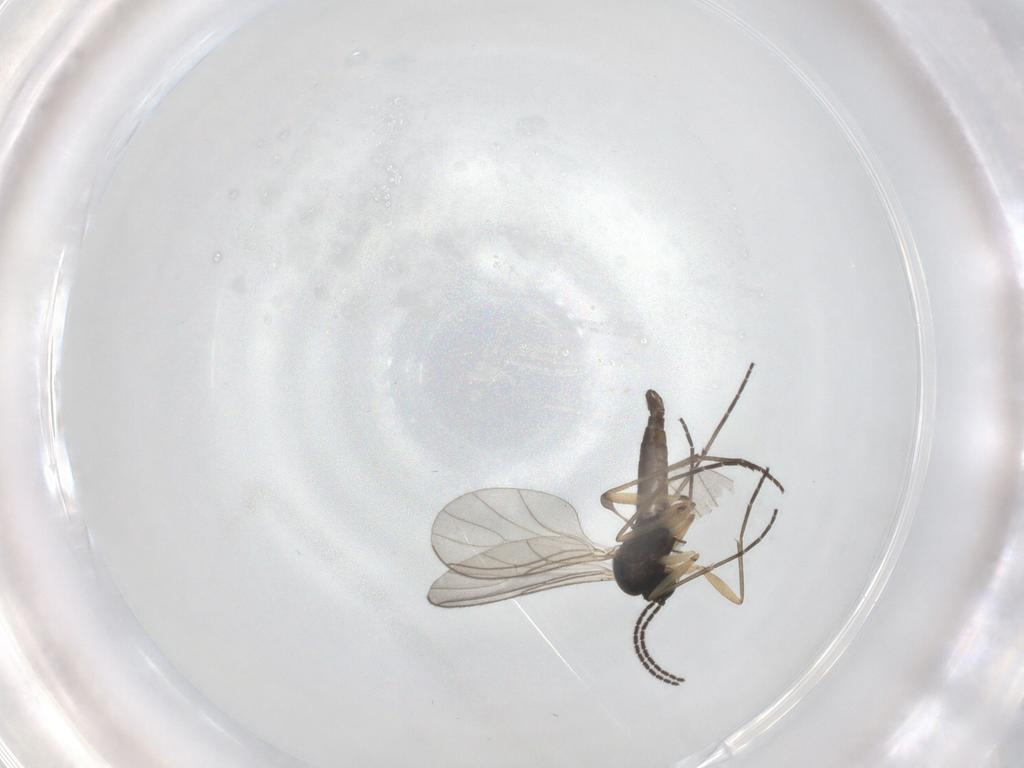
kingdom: Animalia
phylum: Arthropoda
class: Insecta
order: Diptera
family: Sciaridae
